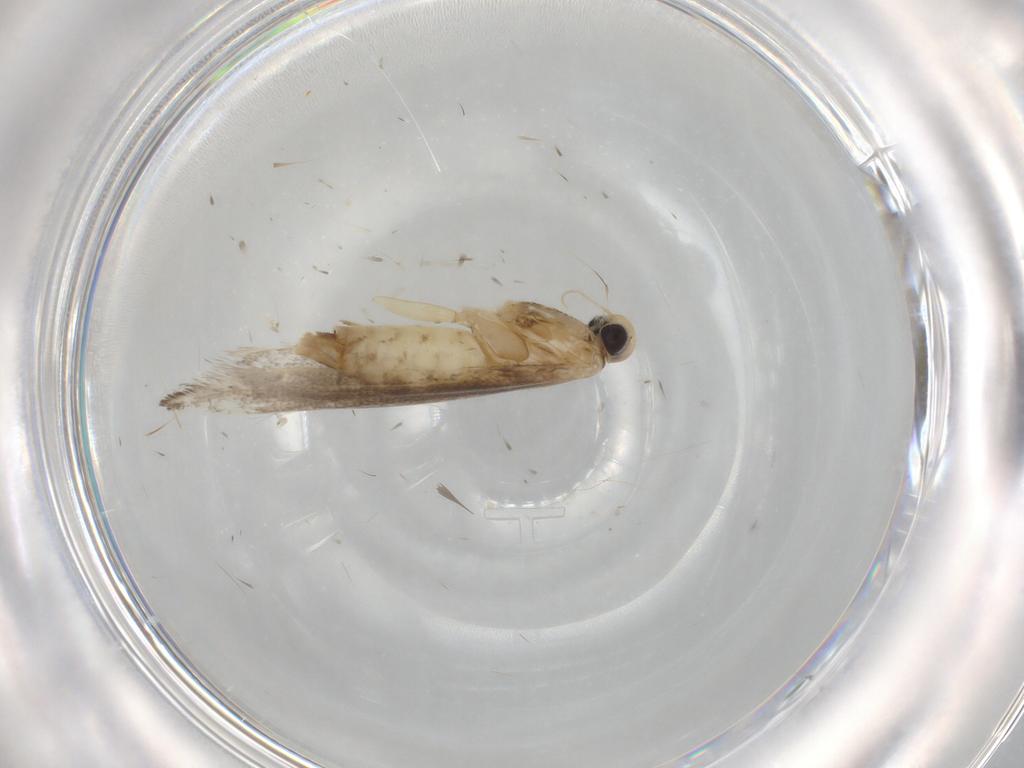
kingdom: Animalia
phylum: Arthropoda
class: Insecta
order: Lepidoptera
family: Gracillariidae
